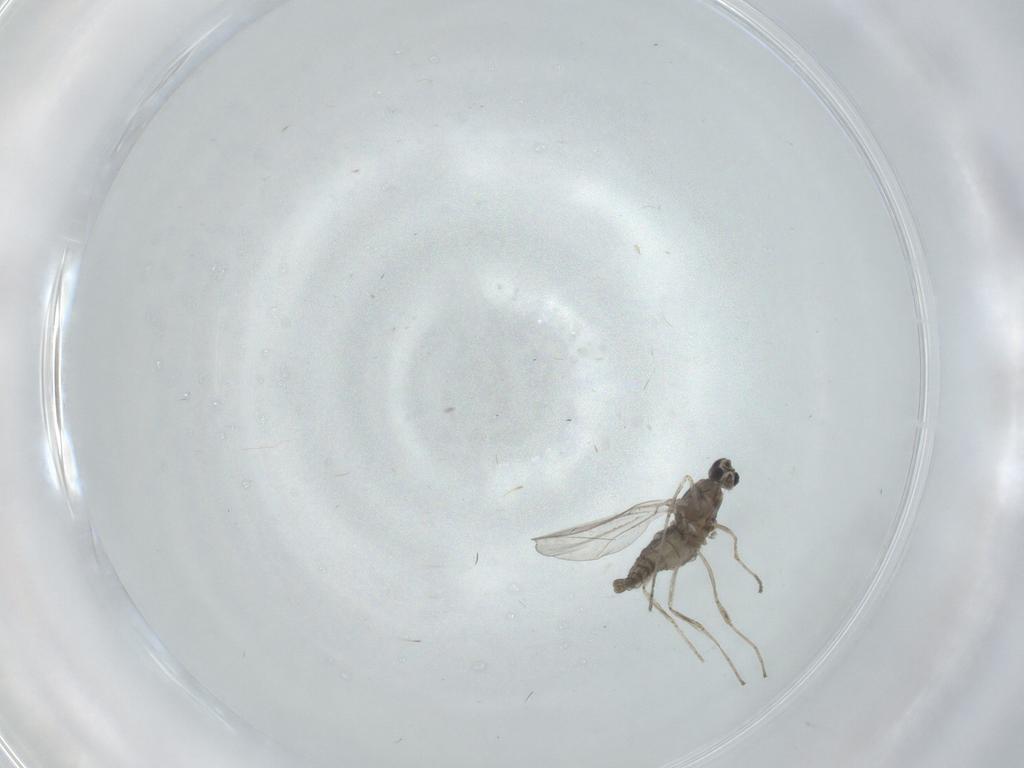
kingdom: Animalia
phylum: Arthropoda
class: Insecta
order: Diptera
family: Cecidomyiidae
